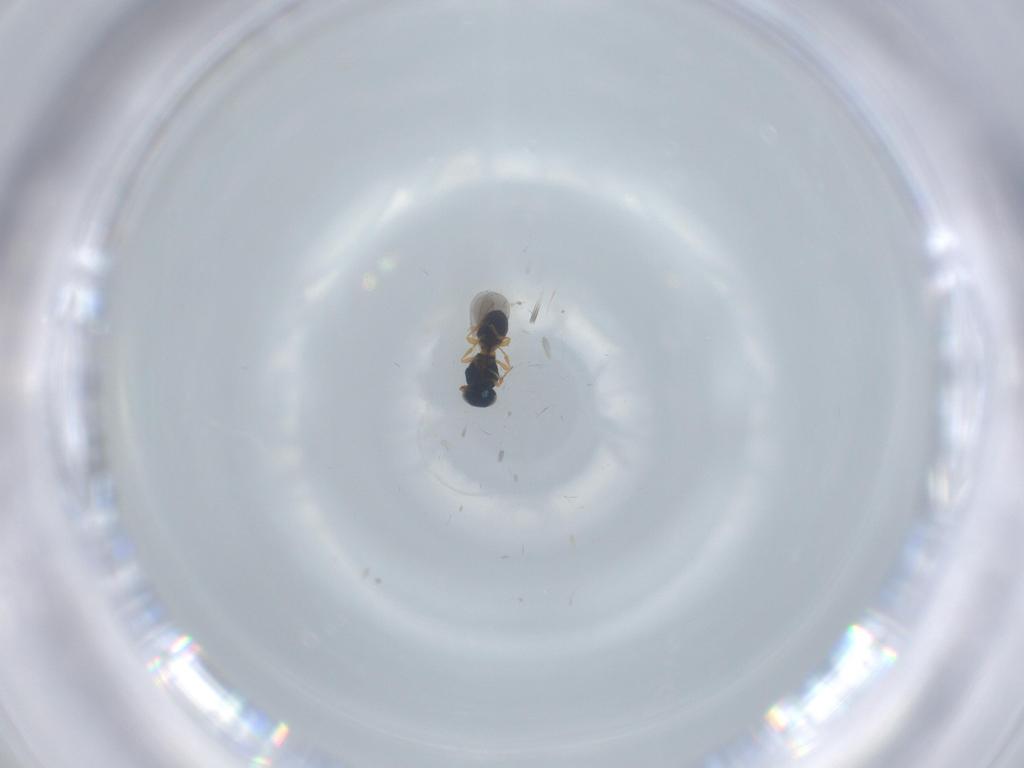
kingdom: Animalia
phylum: Arthropoda
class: Insecta
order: Hymenoptera
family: Platygastridae
